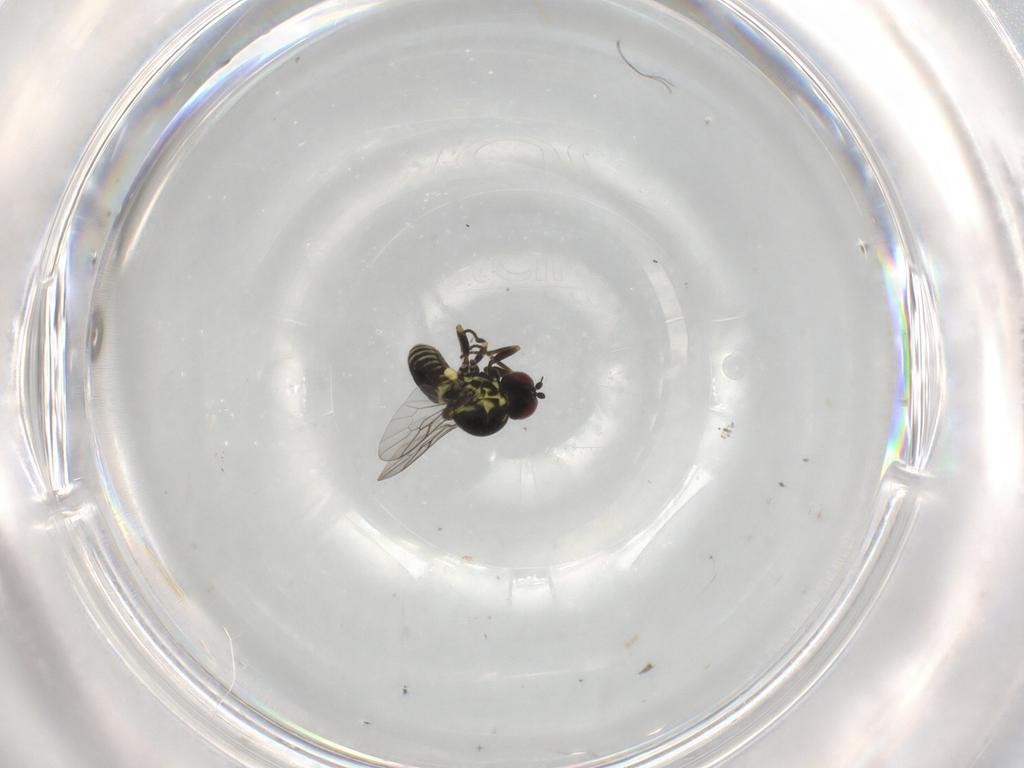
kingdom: Animalia
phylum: Arthropoda
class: Insecta
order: Diptera
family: Mythicomyiidae
